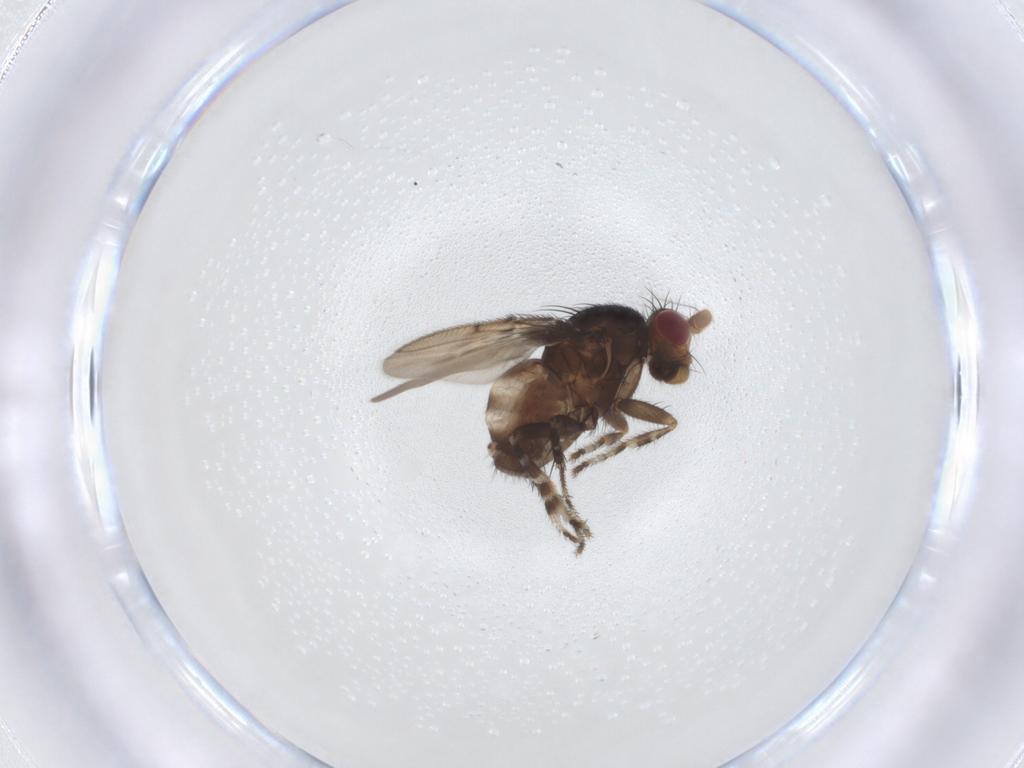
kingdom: Animalia
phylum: Arthropoda
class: Insecta
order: Diptera
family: Sphaeroceridae
